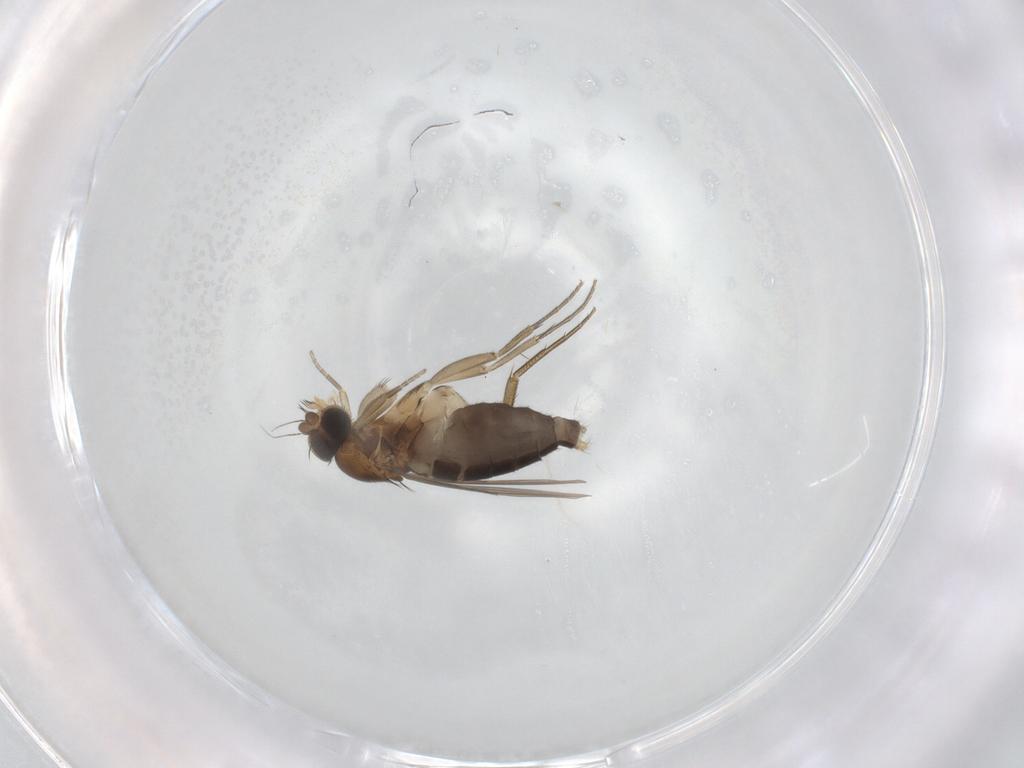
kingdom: Animalia
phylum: Arthropoda
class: Insecta
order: Diptera
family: Phoridae
